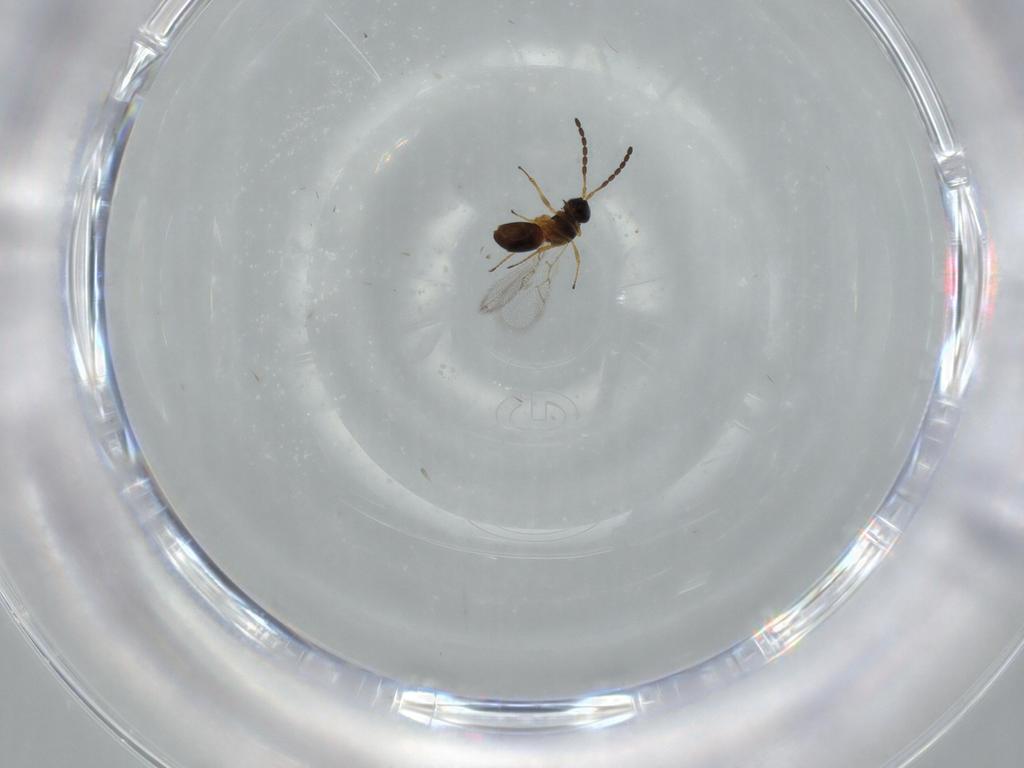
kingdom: Animalia
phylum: Arthropoda
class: Insecta
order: Hymenoptera
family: Figitidae
